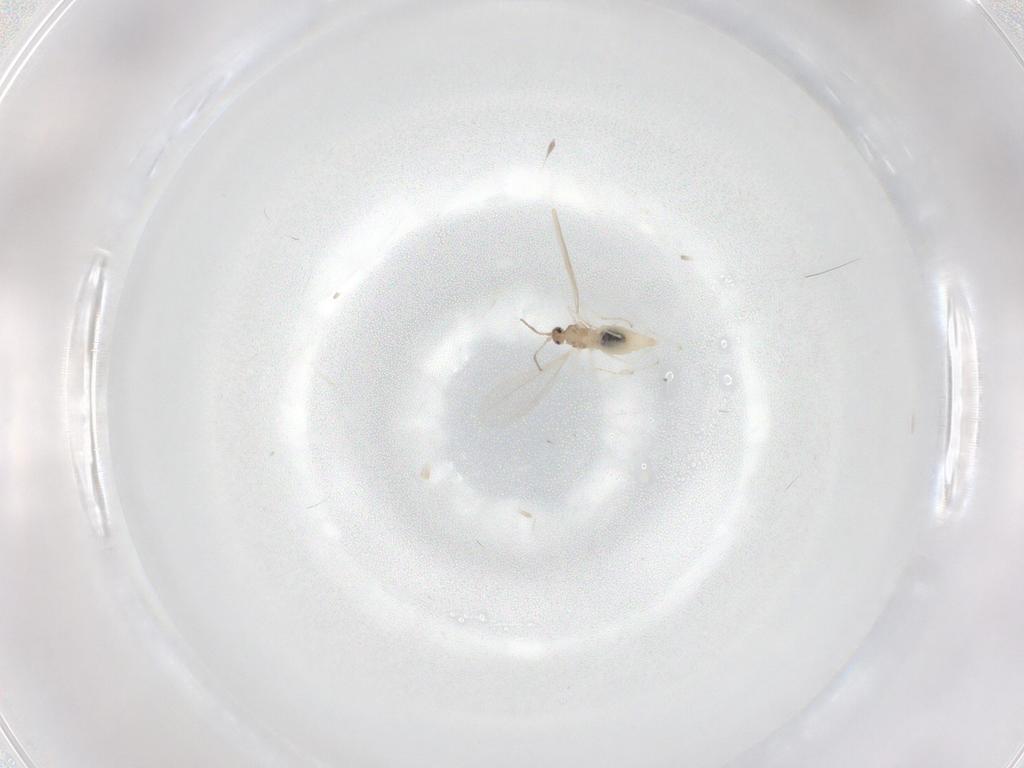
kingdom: Animalia
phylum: Arthropoda
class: Insecta
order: Diptera
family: Chironomidae
